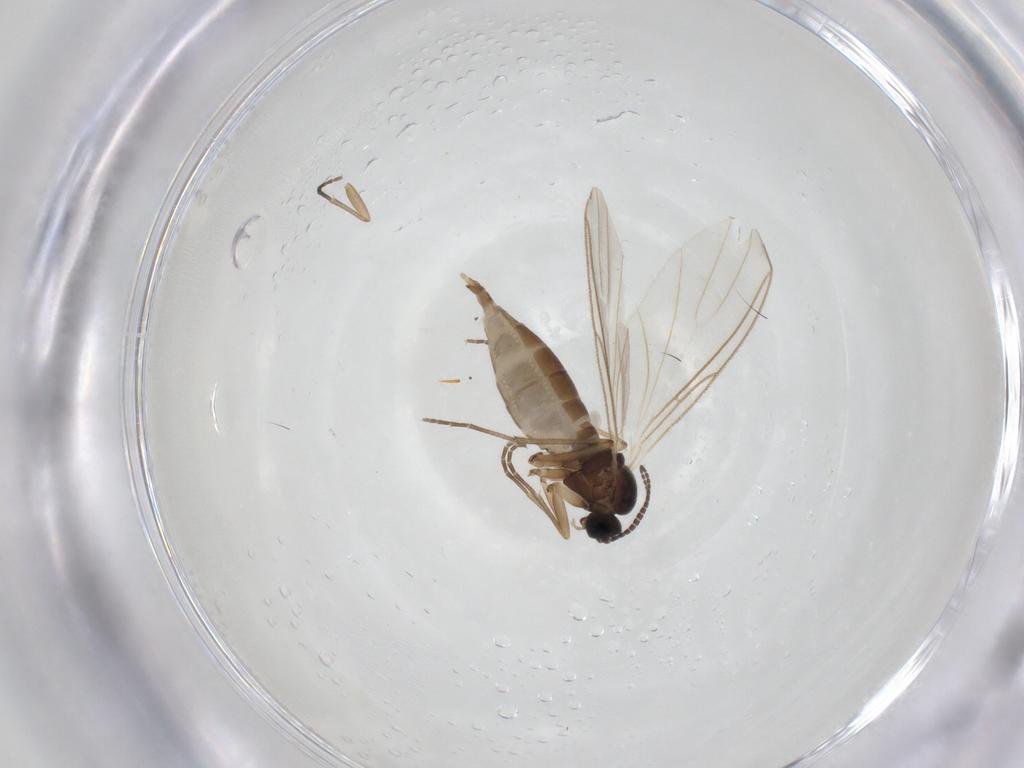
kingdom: Animalia
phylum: Arthropoda
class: Insecta
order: Diptera
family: Sciaridae
